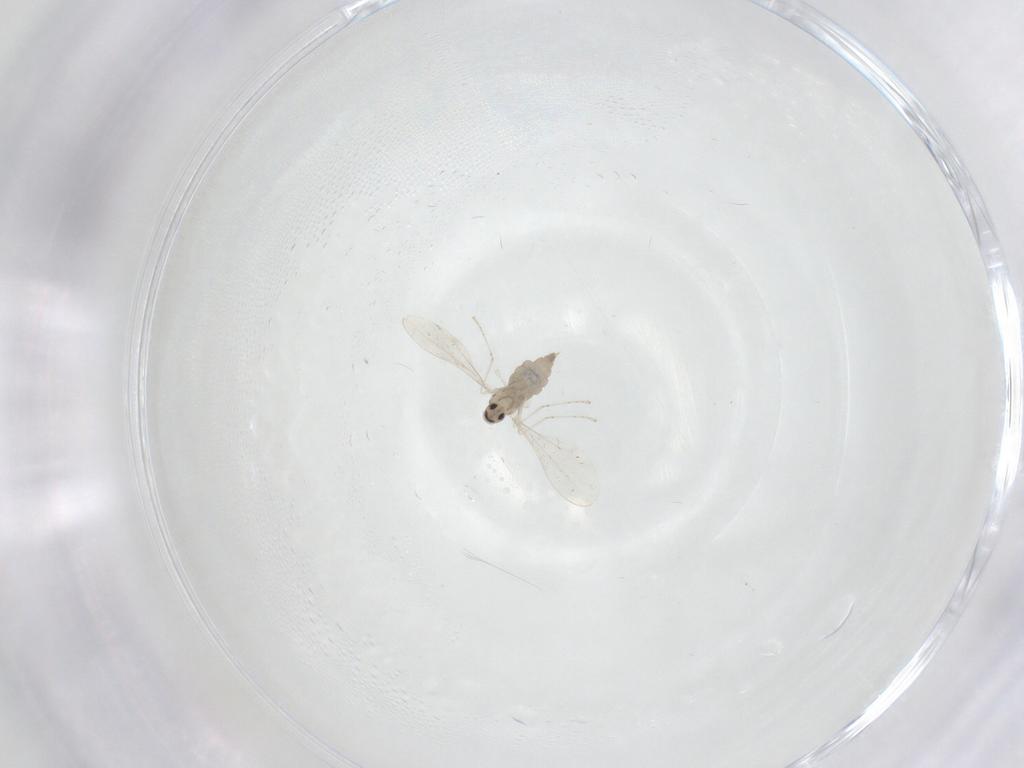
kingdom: Animalia
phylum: Arthropoda
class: Insecta
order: Diptera
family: Cecidomyiidae
